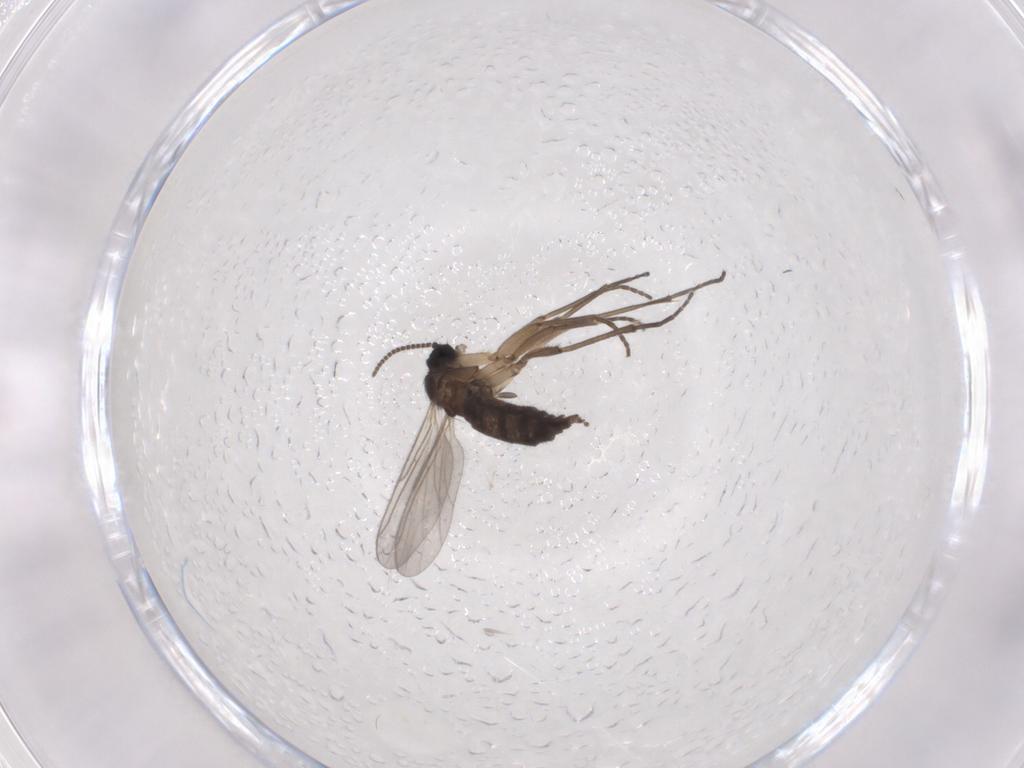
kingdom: Animalia
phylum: Arthropoda
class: Insecta
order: Diptera
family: Sciaridae
